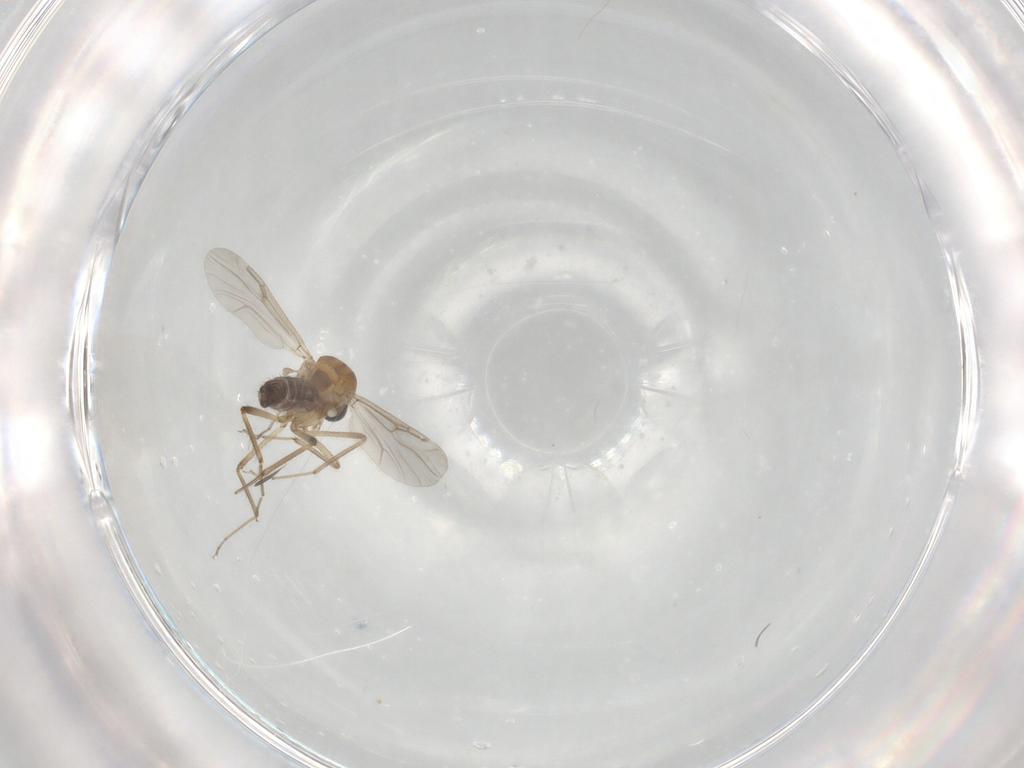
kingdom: Animalia
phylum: Arthropoda
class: Insecta
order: Diptera
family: Ceratopogonidae
